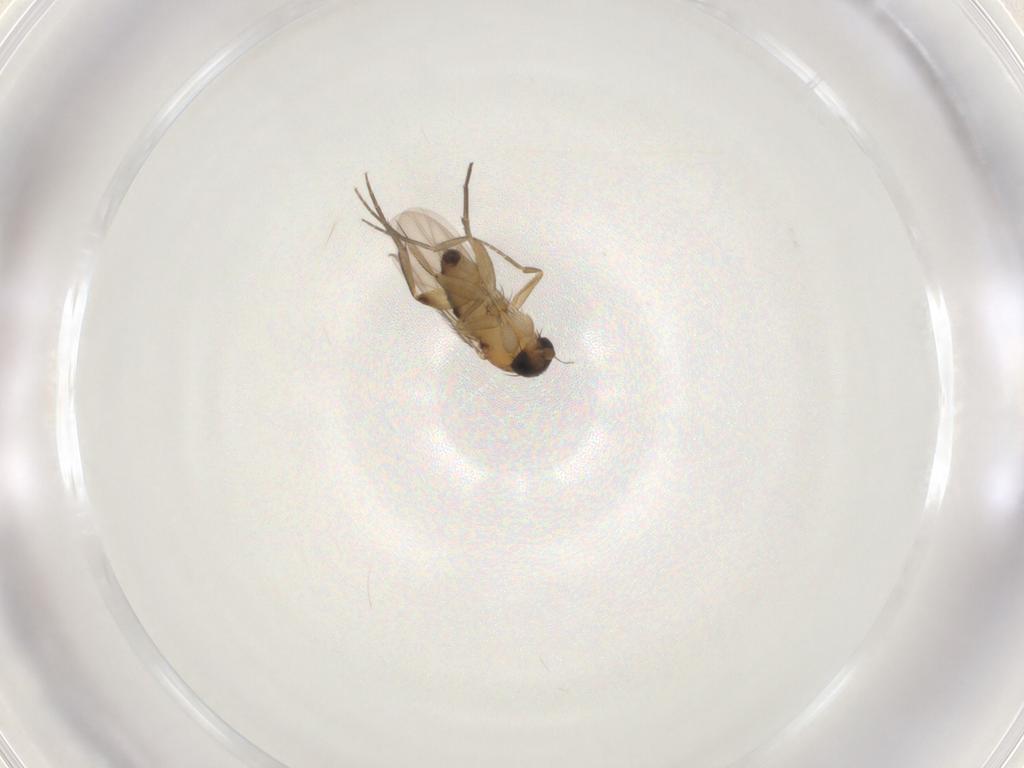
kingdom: Animalia
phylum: Arthropoda
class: Insecta
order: Diptera
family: Phoridae
